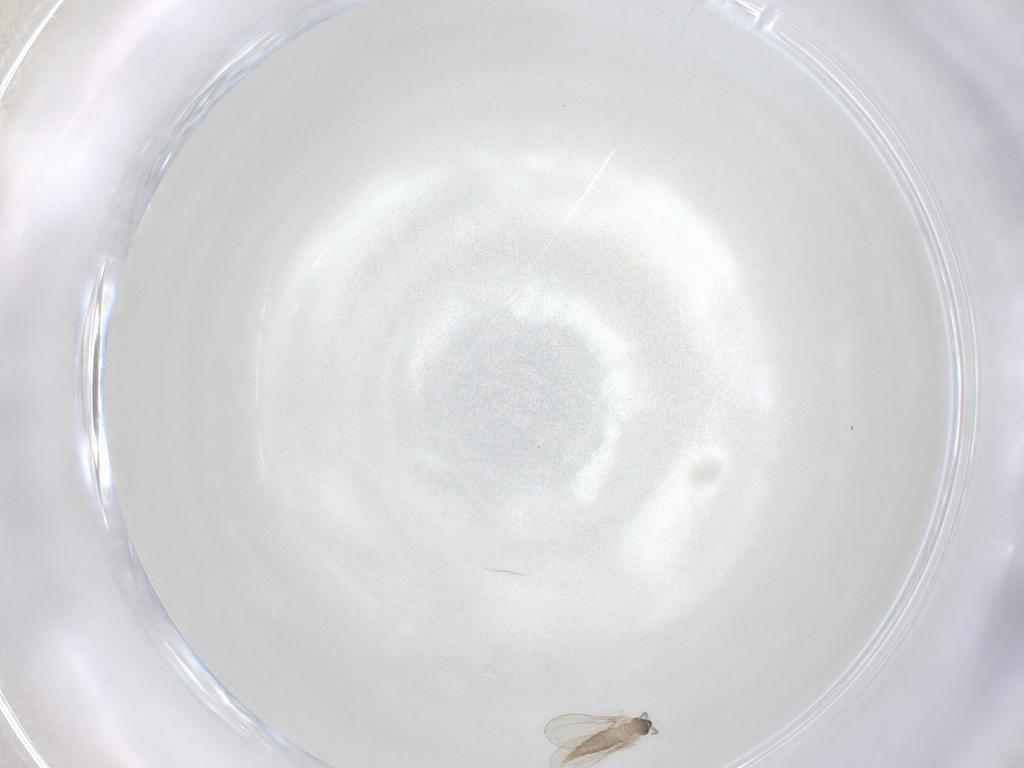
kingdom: Animalia
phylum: Arthropoda
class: Insecta
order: Diptera
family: Cecidomyiidae
